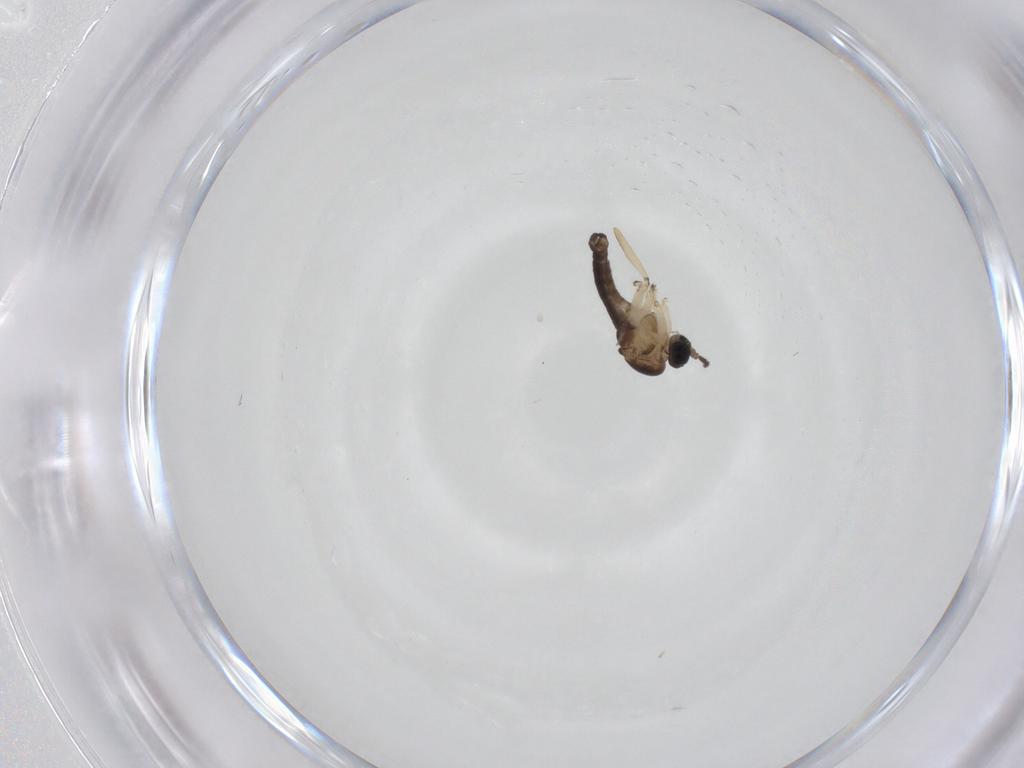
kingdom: Animalia
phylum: Arthropoda
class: Insecta
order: Diptera
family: Sciaridae
